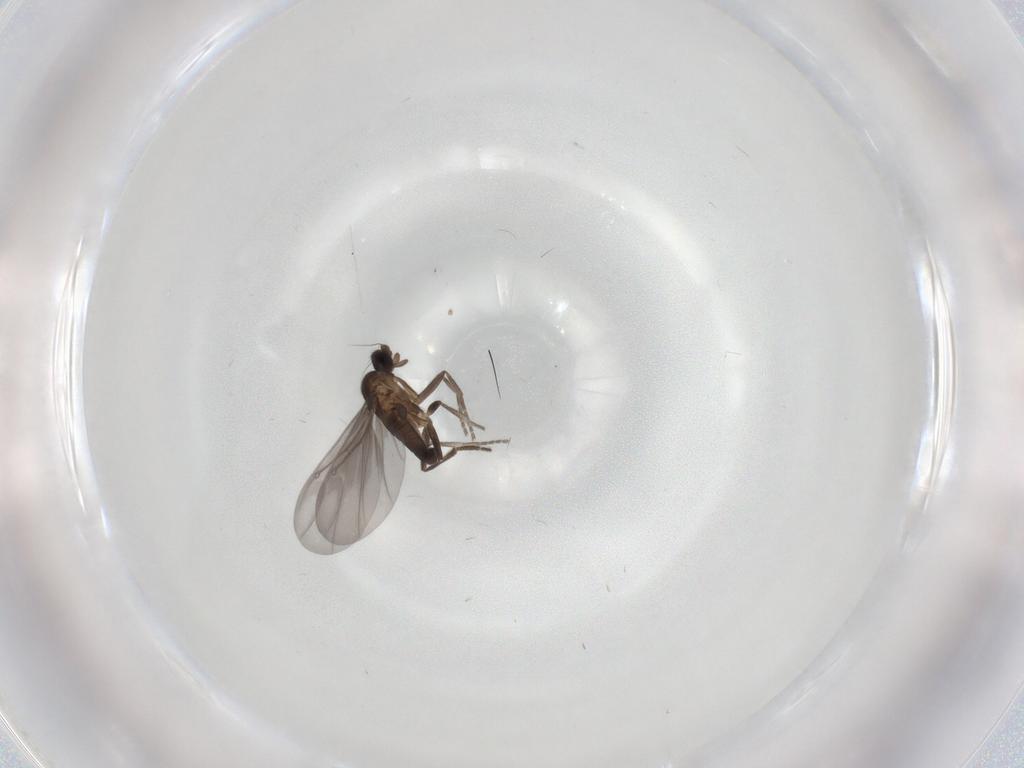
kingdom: Animalia
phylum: Arthropoda
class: Insecta
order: Diptera
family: Phoridae
